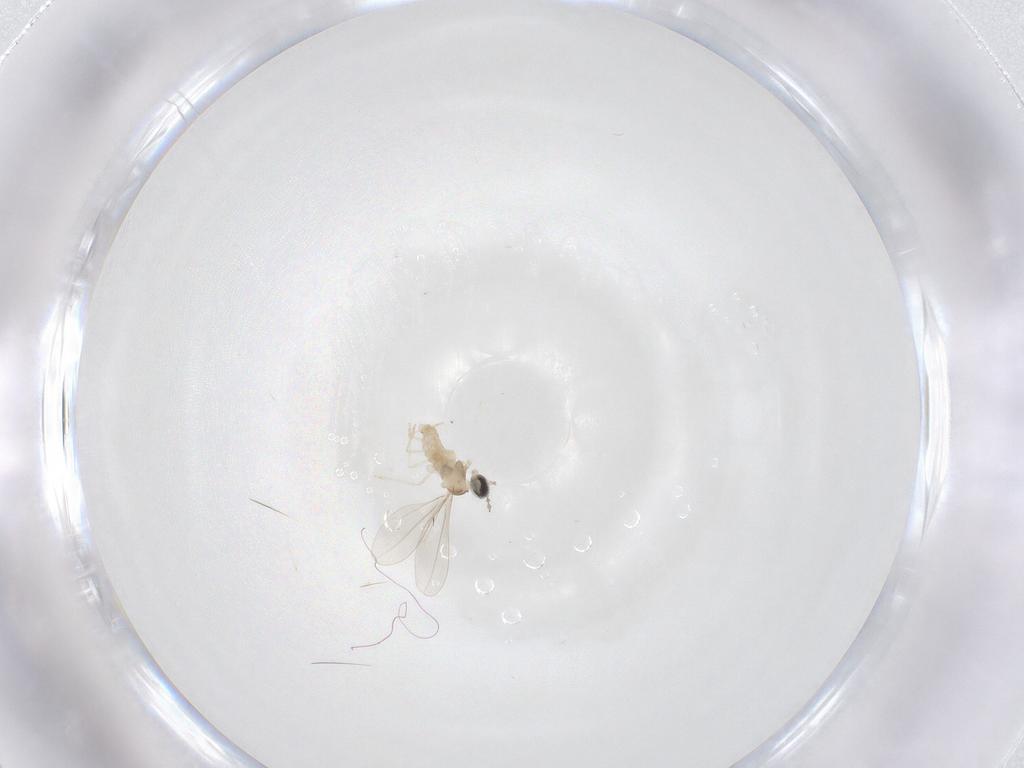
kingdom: Animalia
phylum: Arthropoda
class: Insecta
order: Diptera
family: Cecidomyiidae
